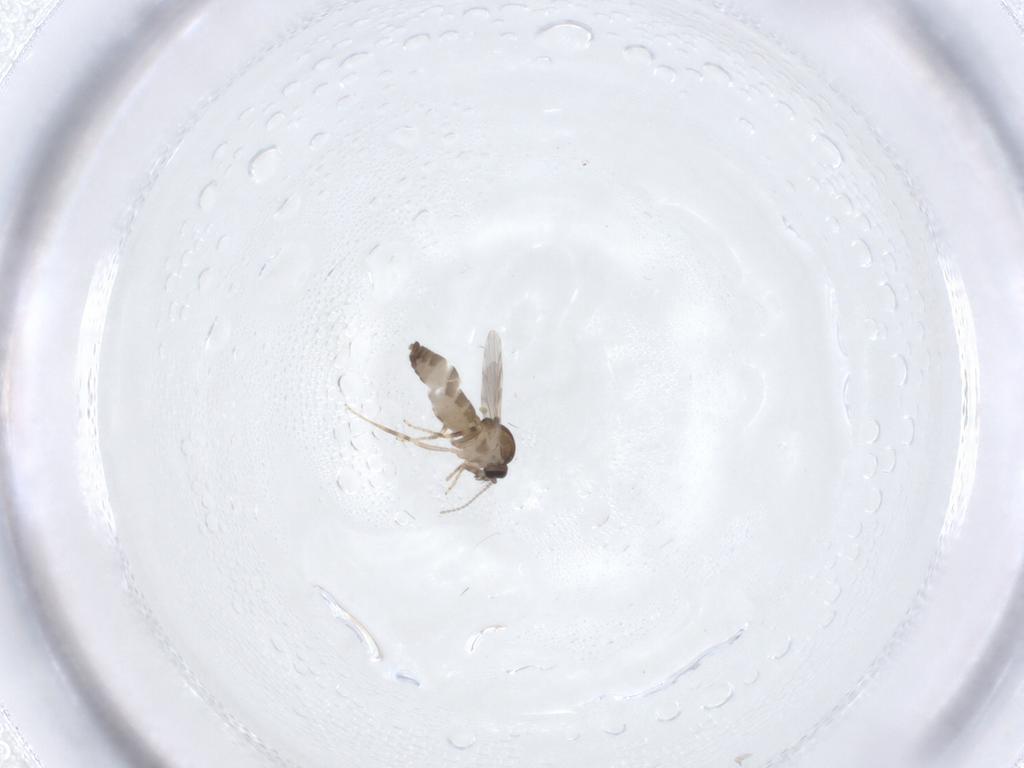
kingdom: Animalia
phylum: Arthropoda
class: Insecta
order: Diptera
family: Ceratopogonidae
